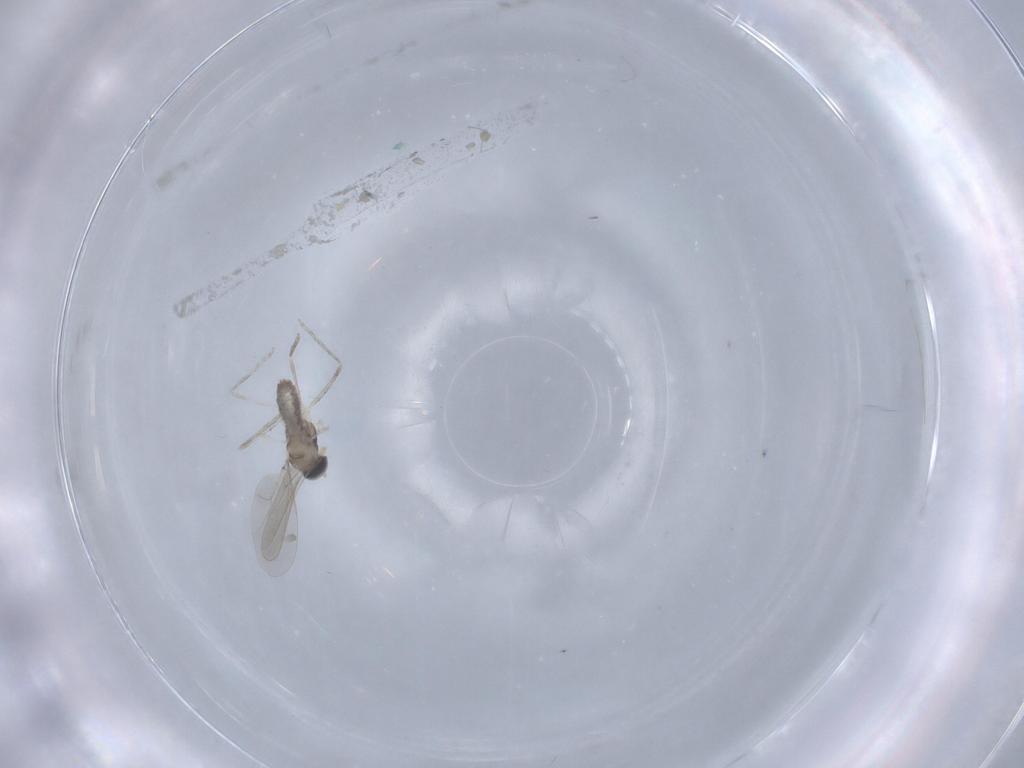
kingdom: Animalia
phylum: Arthropoda
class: Insecta
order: Diptera
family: Cecidomyiidae
